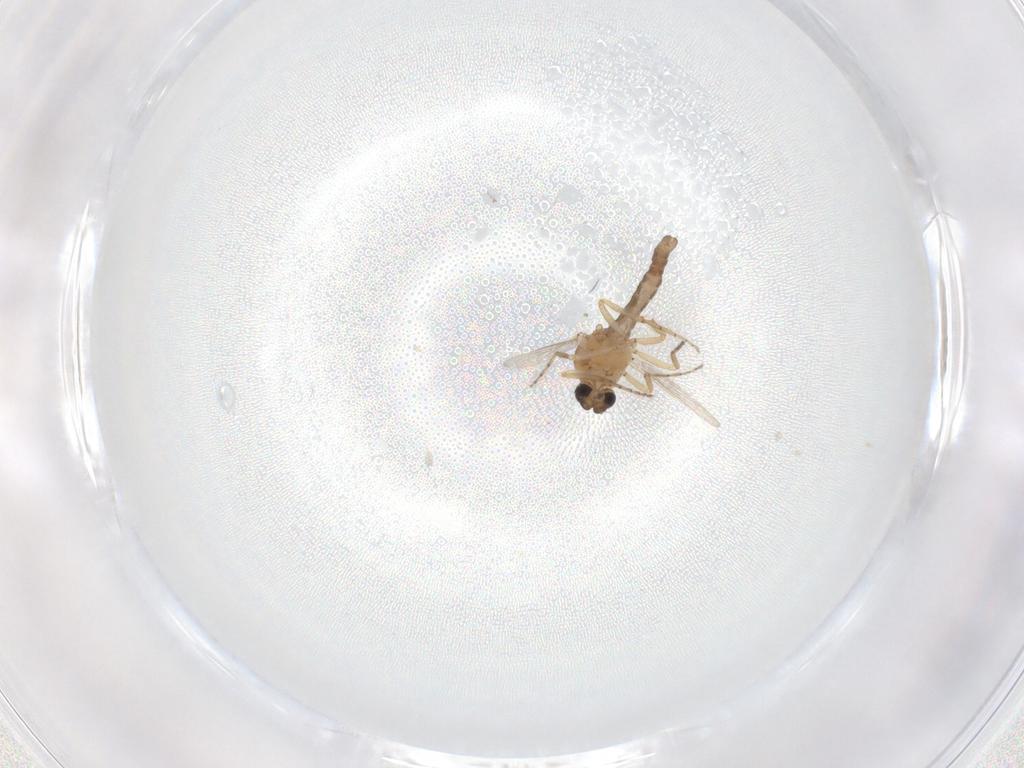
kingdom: Animalia
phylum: Arthropoda
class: Insecta
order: Diptera
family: Ceratopogonidae
